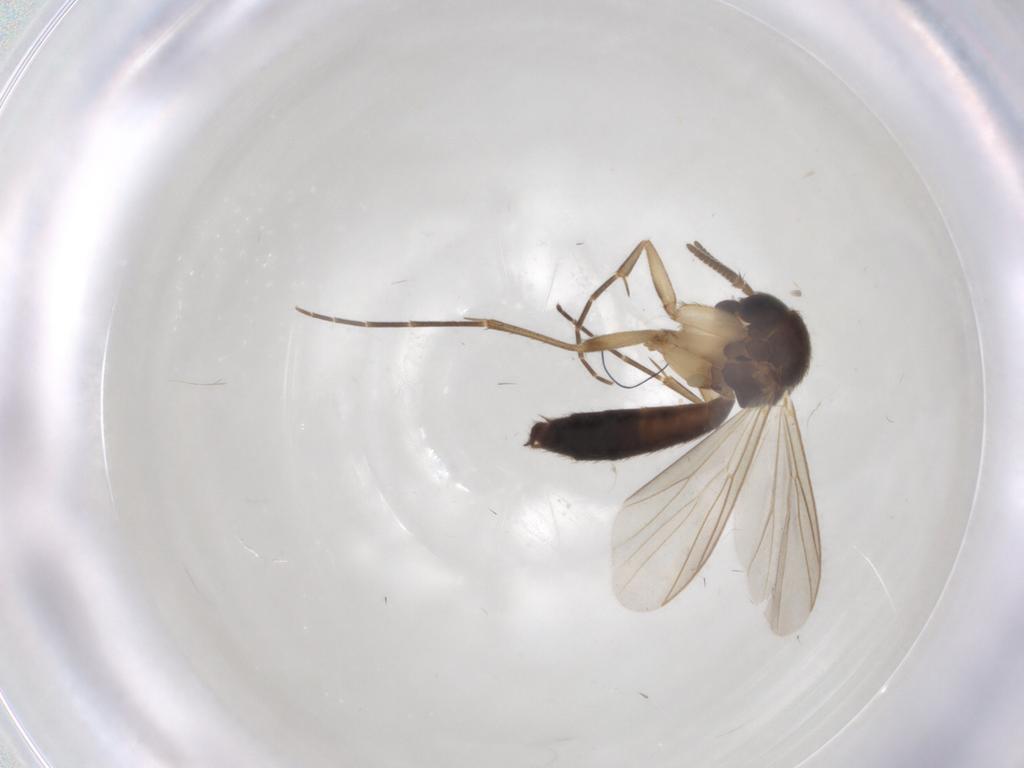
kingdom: Animalia
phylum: Arthropoda
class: Insecta
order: Diptera
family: Mycetophilidae
